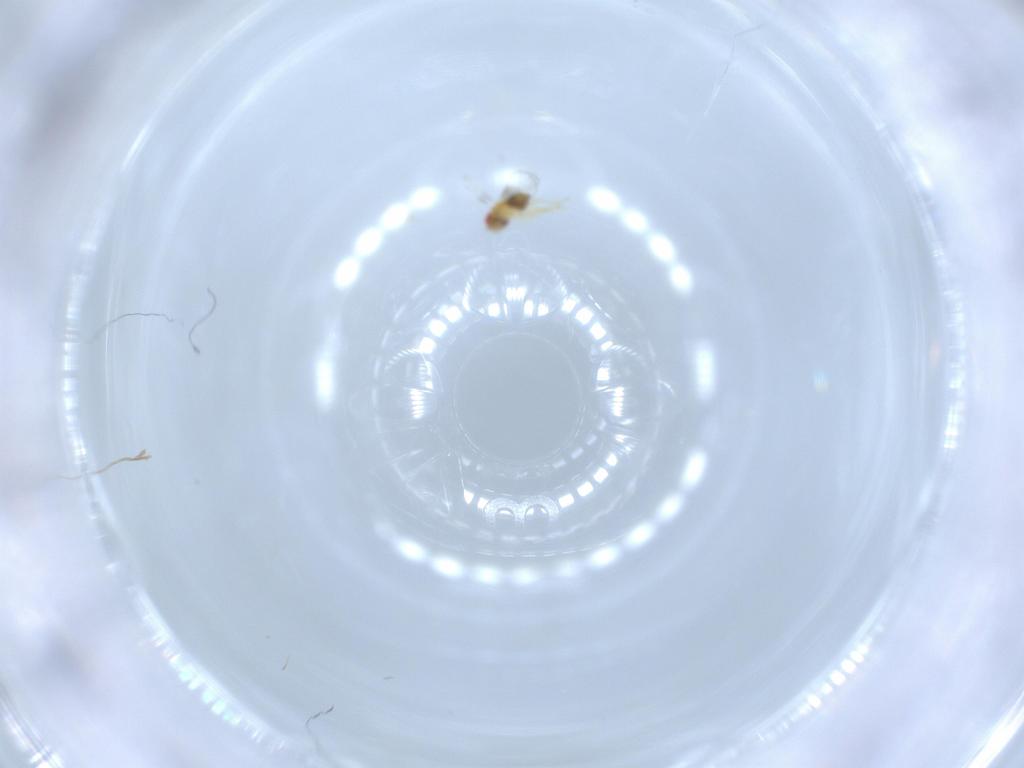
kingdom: Animalia
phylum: Arthropoda
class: Insecta
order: Hymenoptera
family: Trichogrammatidae
